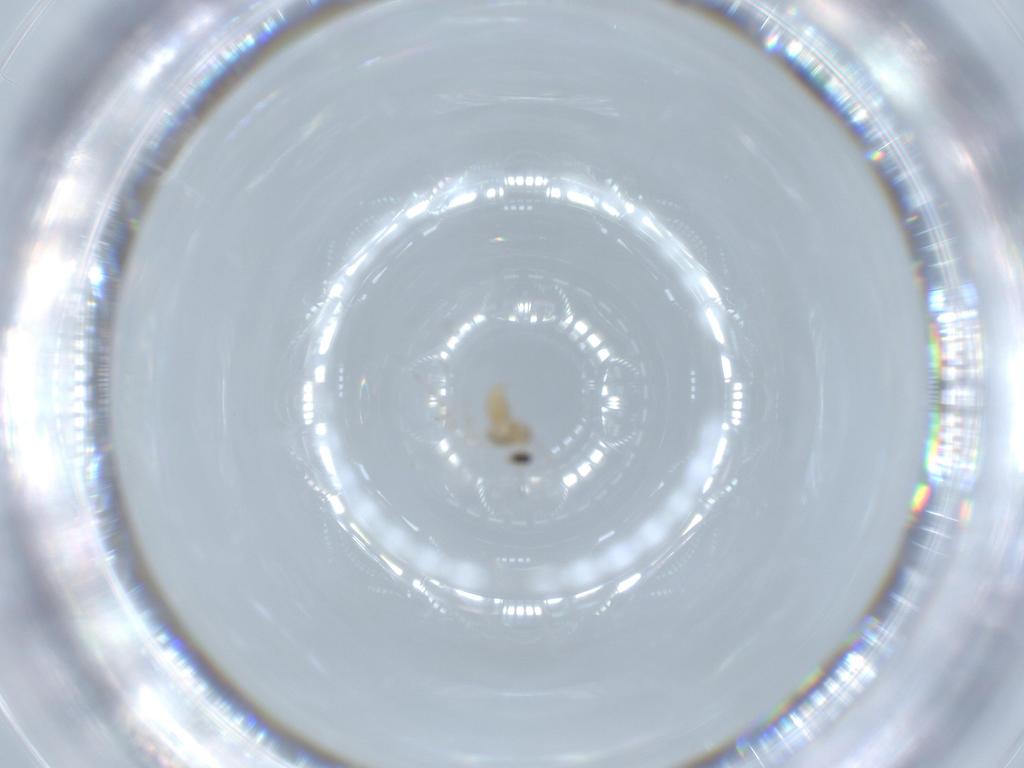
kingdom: Animalia
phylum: Arthropoda
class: Insecta
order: Diptera
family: Cecidomyiidae
